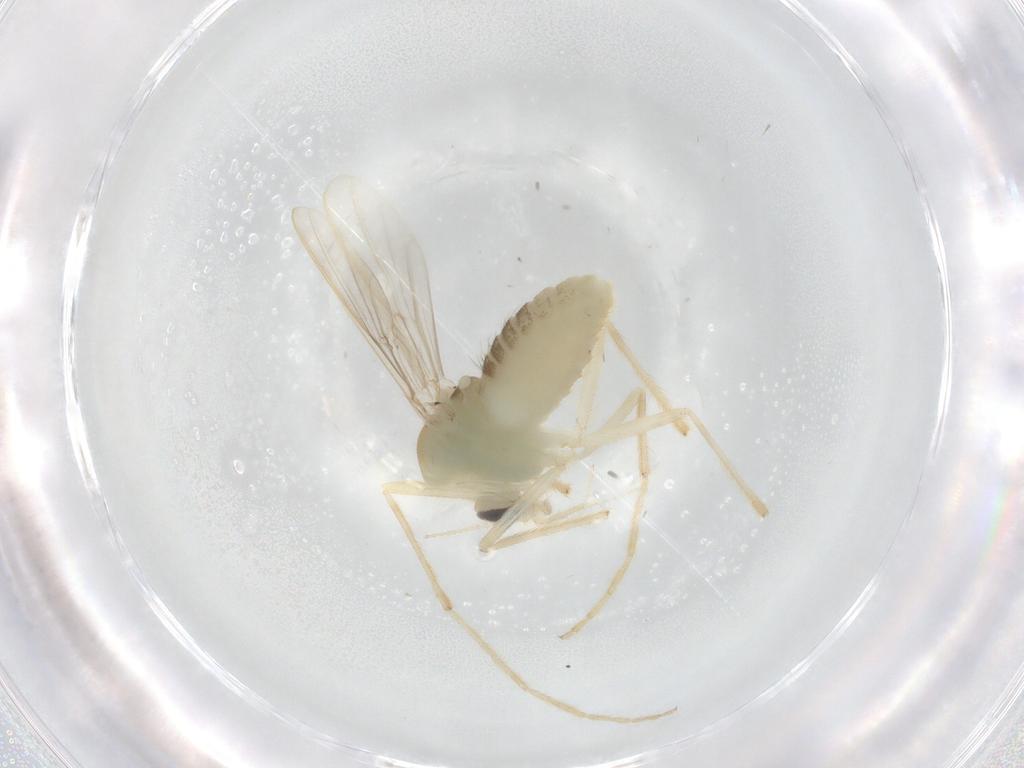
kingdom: Animalia
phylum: Arthropoda
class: Insecta
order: Diptera
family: Chironomidae
